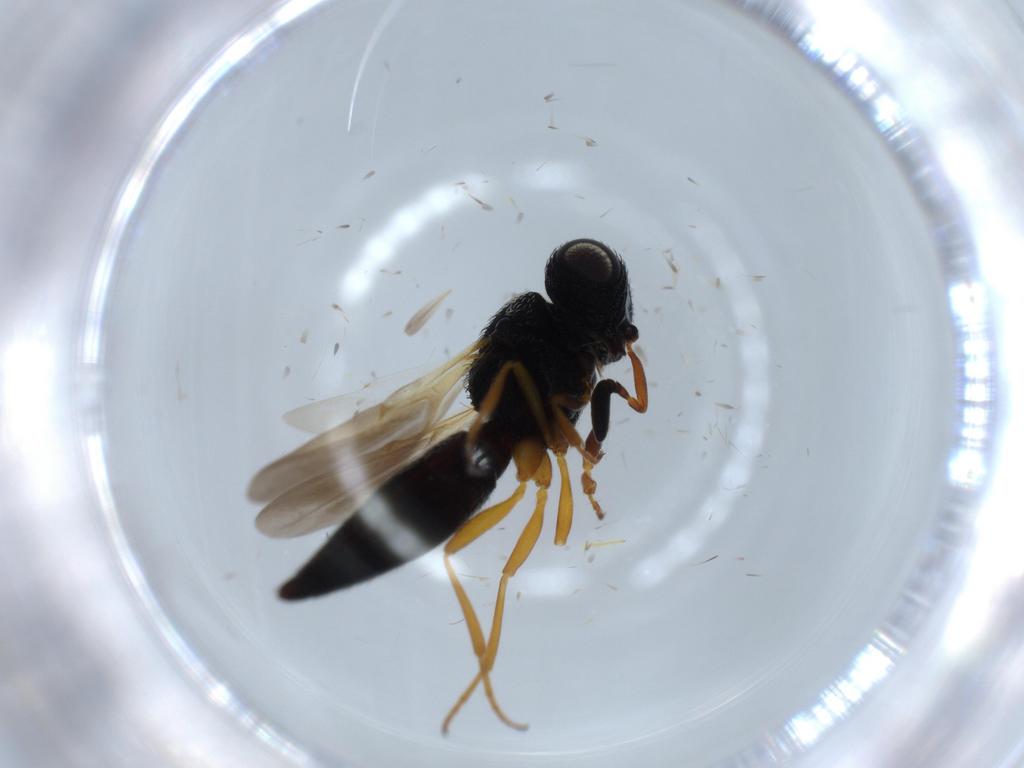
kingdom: Animalia
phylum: Arthropoda
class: Insecta
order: Hymenoptera
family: Scelionidae
